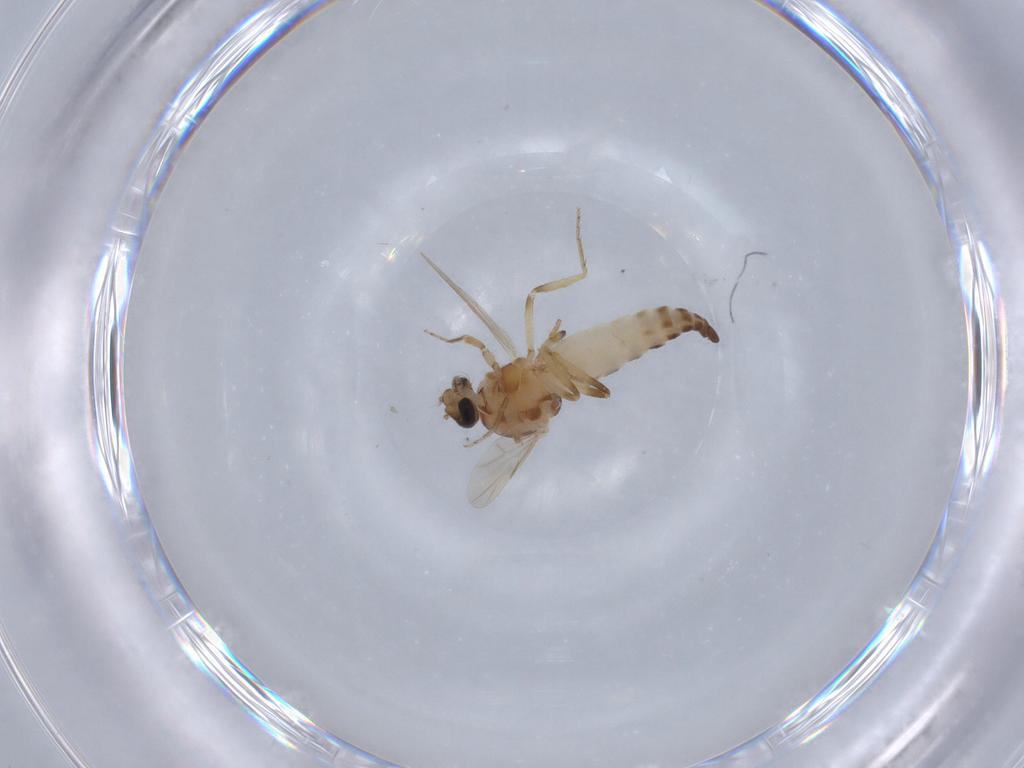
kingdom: Animalia
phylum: Arthropoda
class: Insecta
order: Diptera
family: Ceratopogonidae
